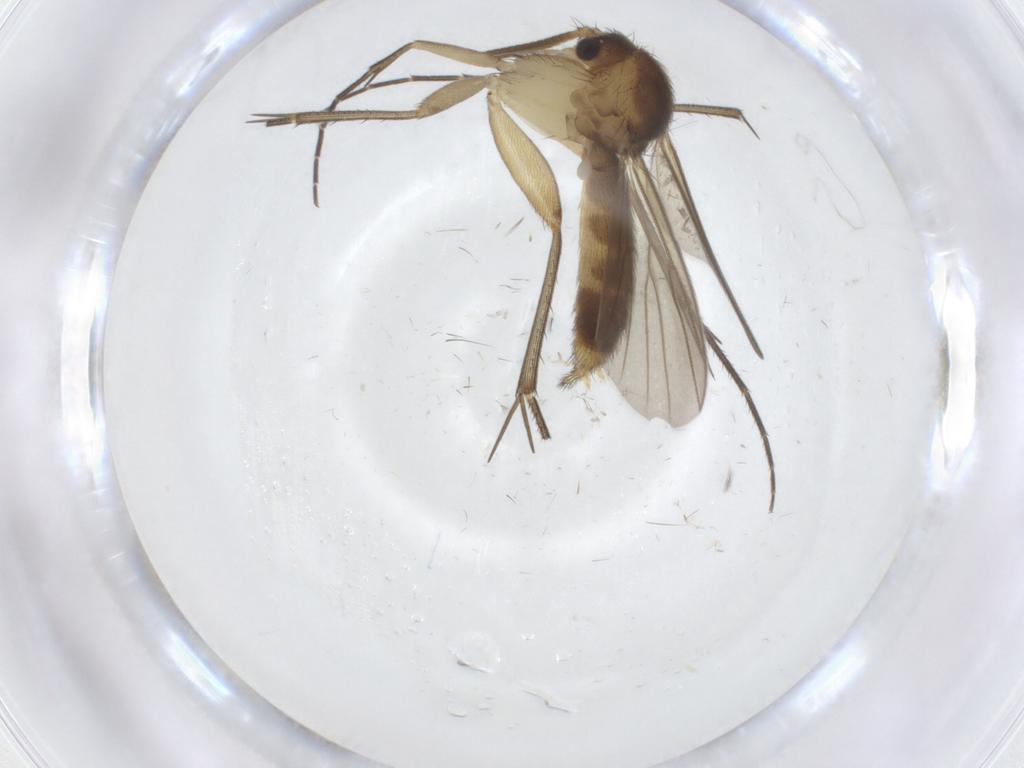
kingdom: Animalia
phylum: Arthropoda
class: Insecta
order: Diptera
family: Mycetophilidae
